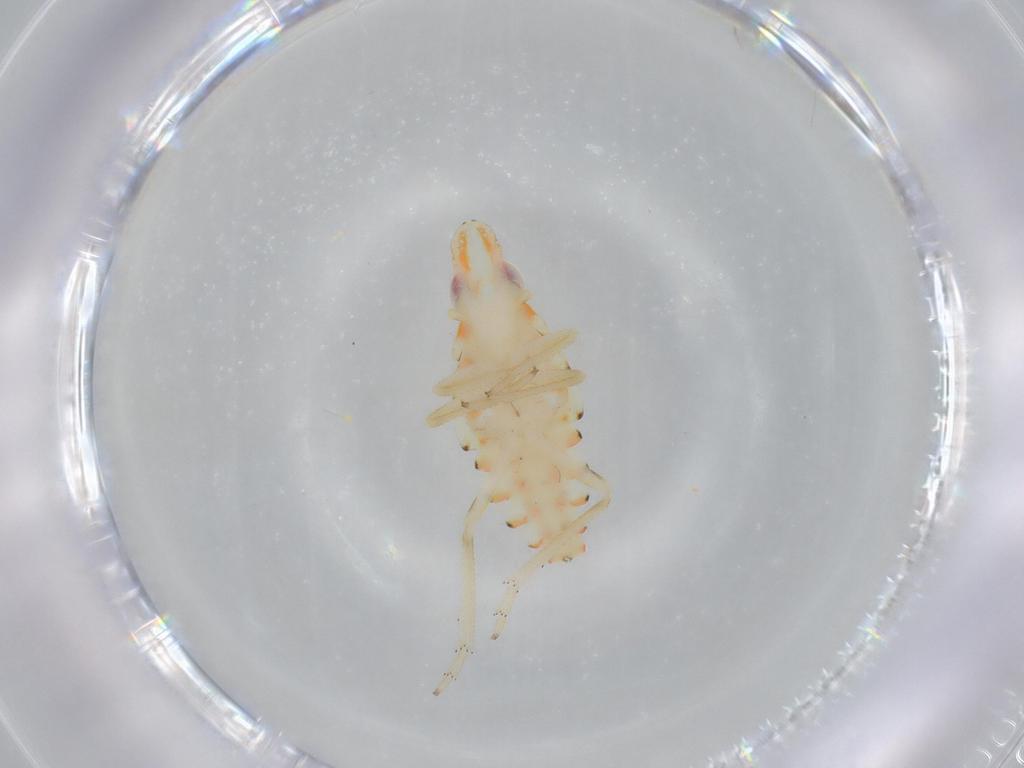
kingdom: Animalia
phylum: Arthropoda
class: Insecta
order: Hemiptera
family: Tropiduchidae
